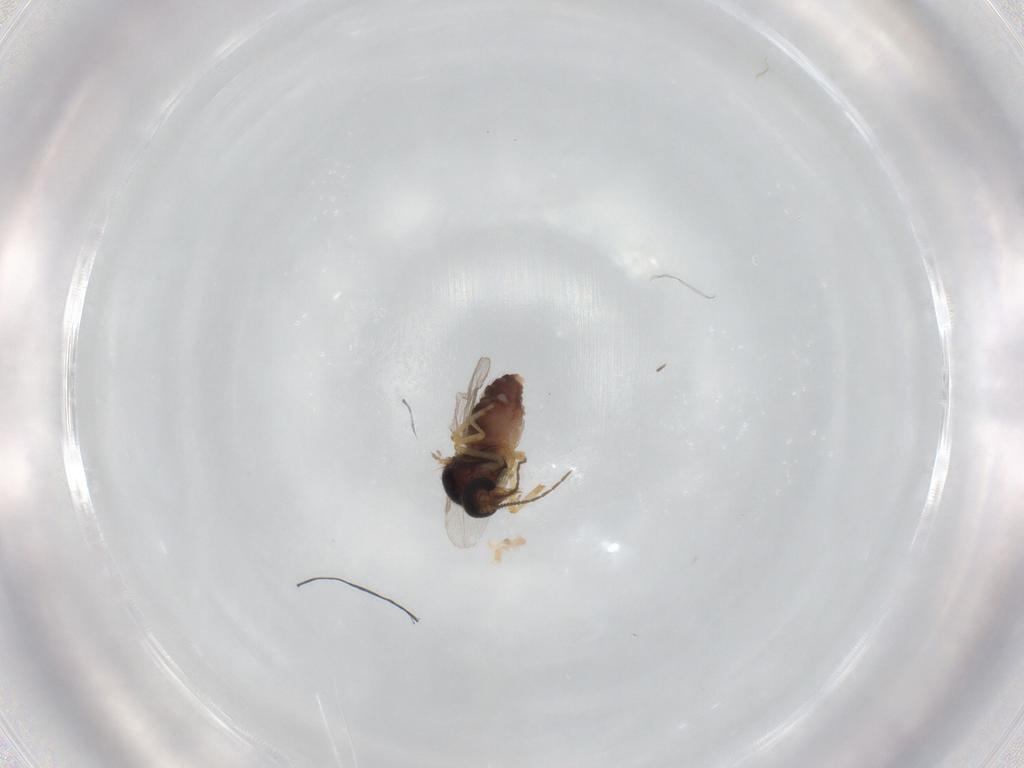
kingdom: Animalia
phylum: Arthropoda
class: Insecta
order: Diptera
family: Ceratopogonidae
